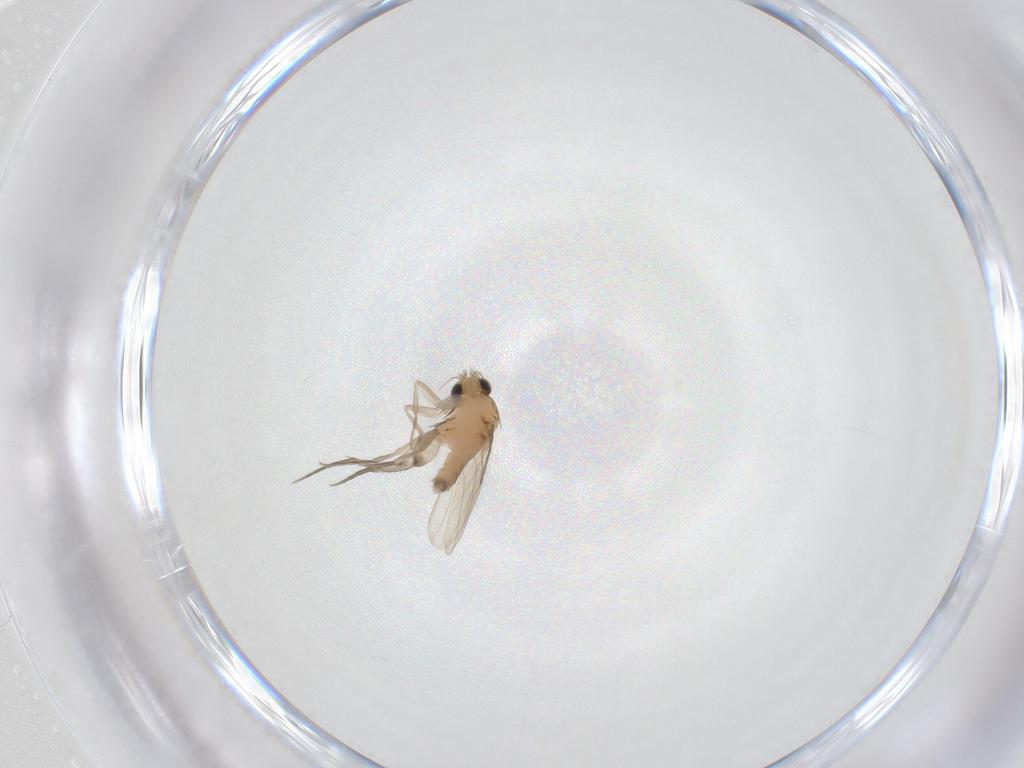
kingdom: Animalia
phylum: Arthropoda
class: Insecta
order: Diptera
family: Phoridae
